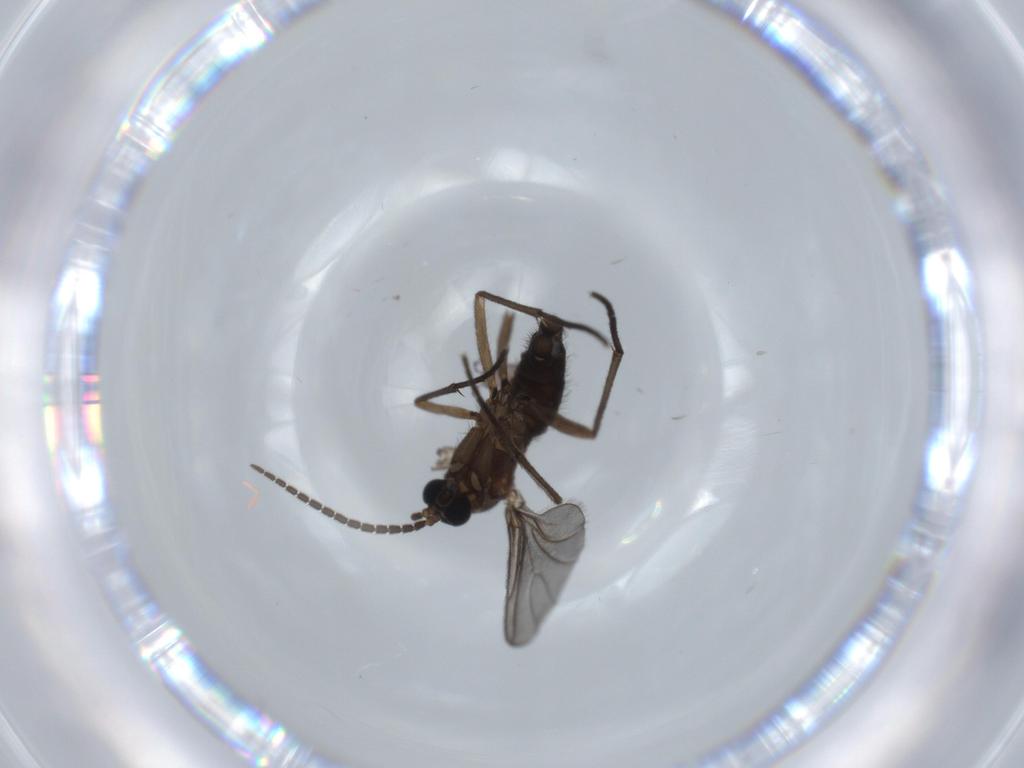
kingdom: Animalia
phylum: Arthropoda
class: Insecta
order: Diptera
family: Sciaridae
